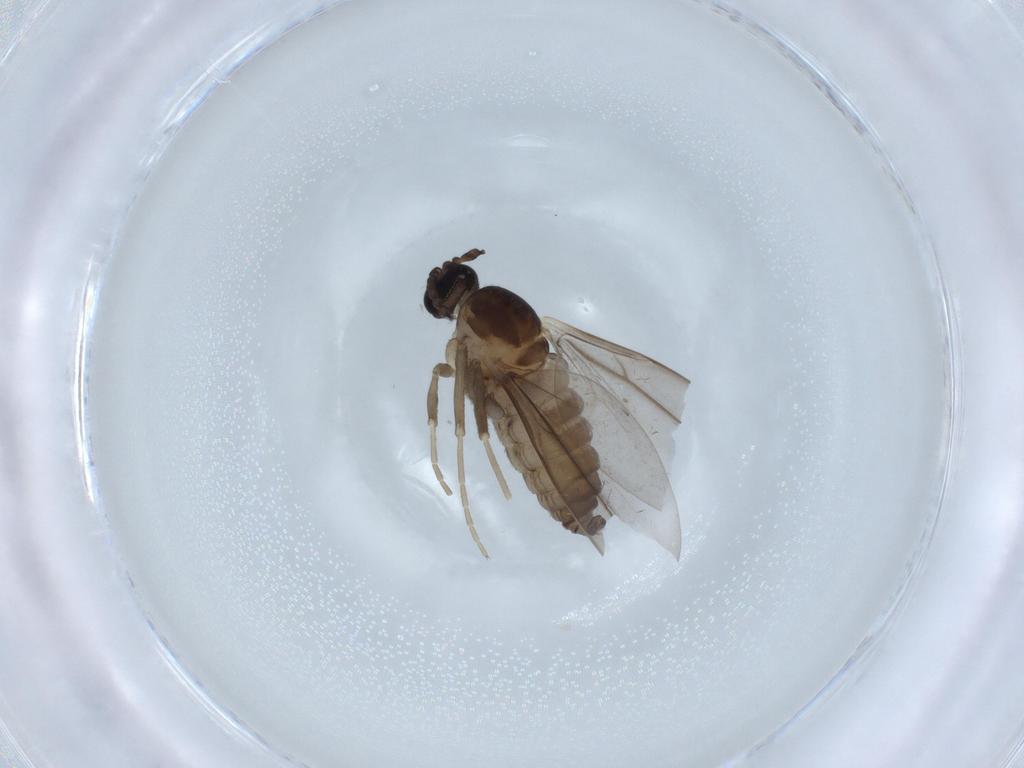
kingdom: Animalia
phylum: Arthropoda
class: Insecta
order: Diptera
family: Cecidomyiidae
